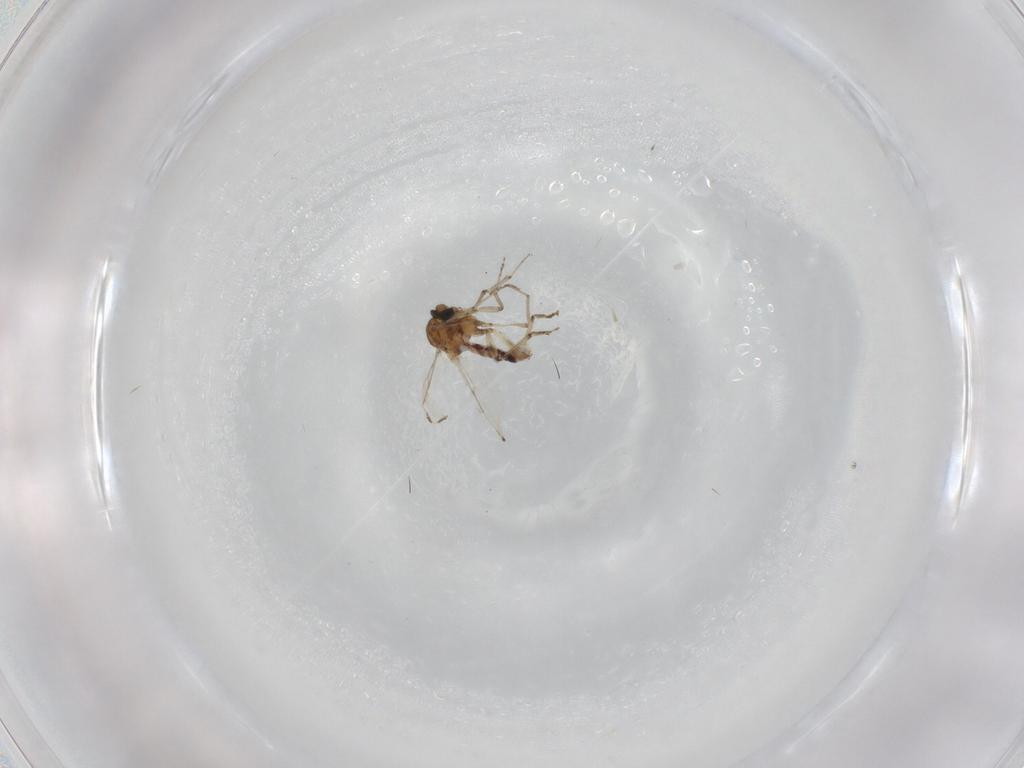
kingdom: Animalia
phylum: Arthropoda
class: Insecta
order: Diptera
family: Ceratopogonidae
